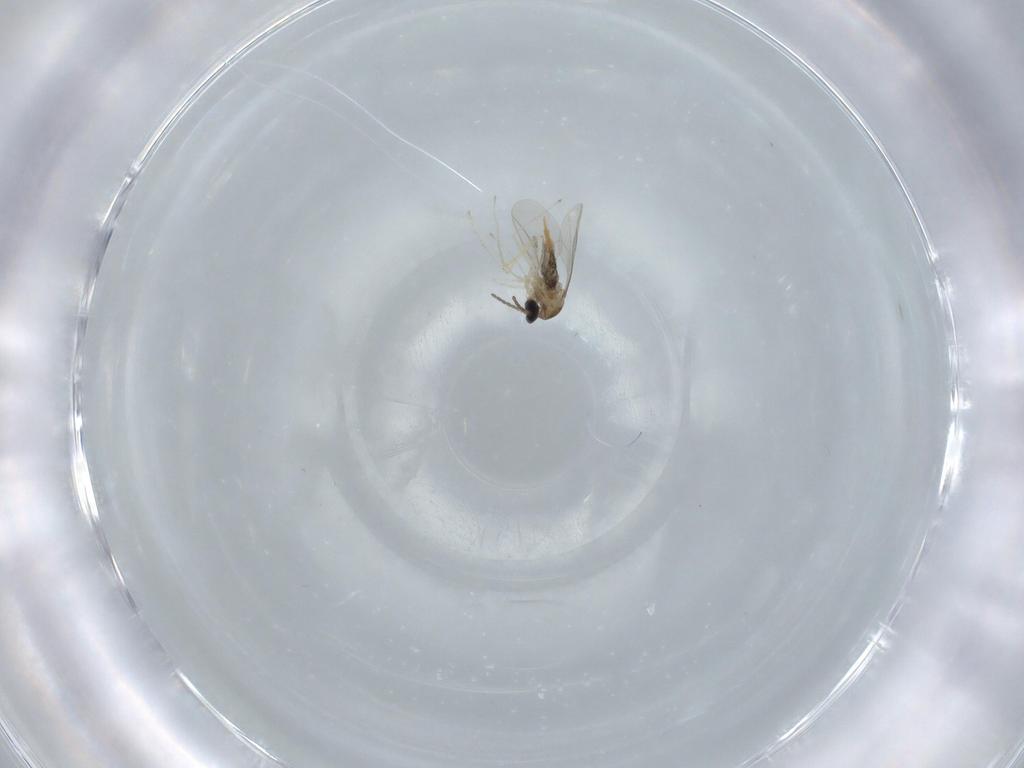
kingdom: Animalia
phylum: Arthropoda
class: Insecta
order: Diptera
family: Cecidomyiidae
